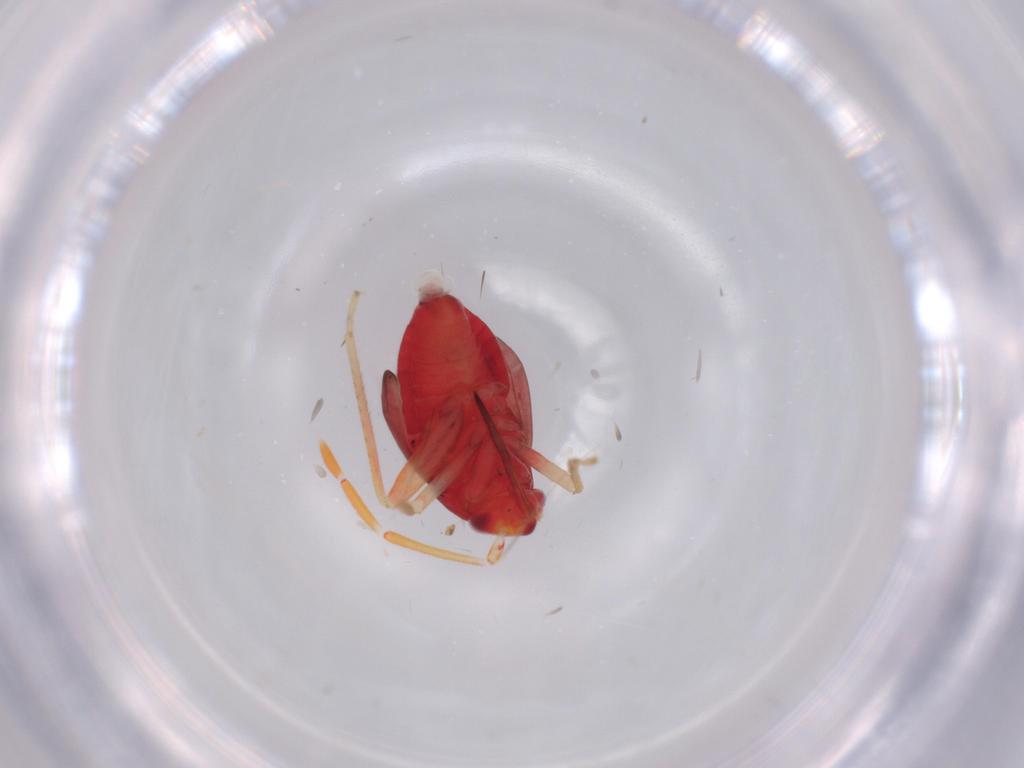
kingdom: Animalia
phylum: Arthropoda
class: Insecta
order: Hemiptera
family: Miridae
